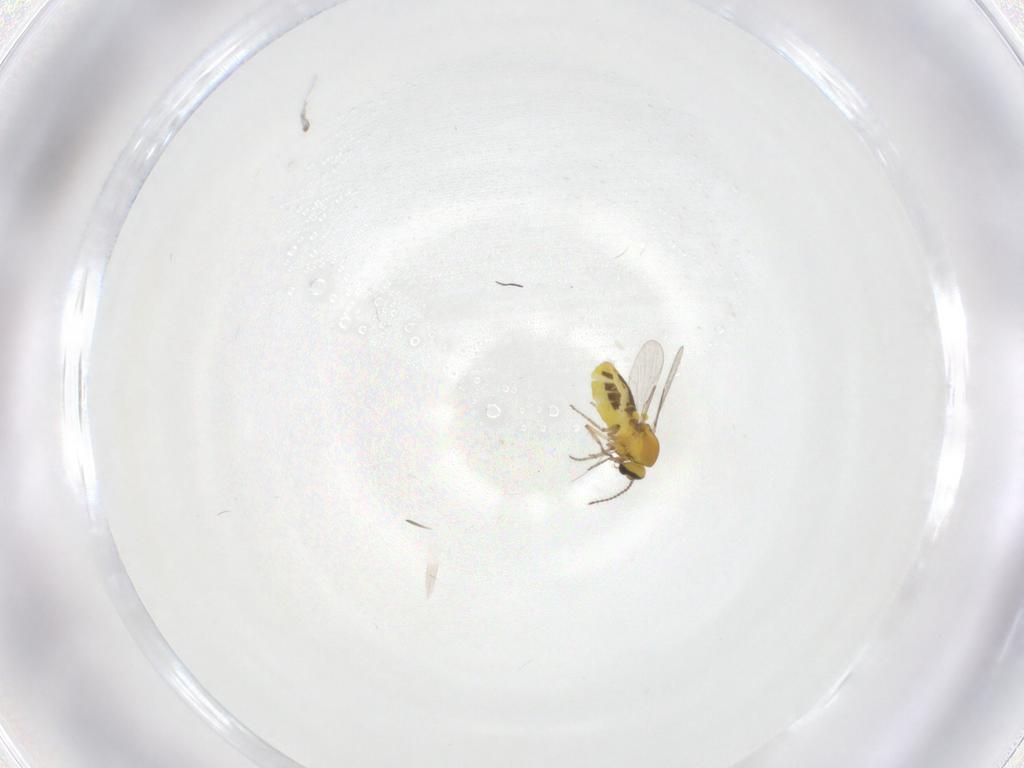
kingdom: Animalia
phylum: Arthropoda
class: Insecta
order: Diptera
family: Ceratopogonidae
